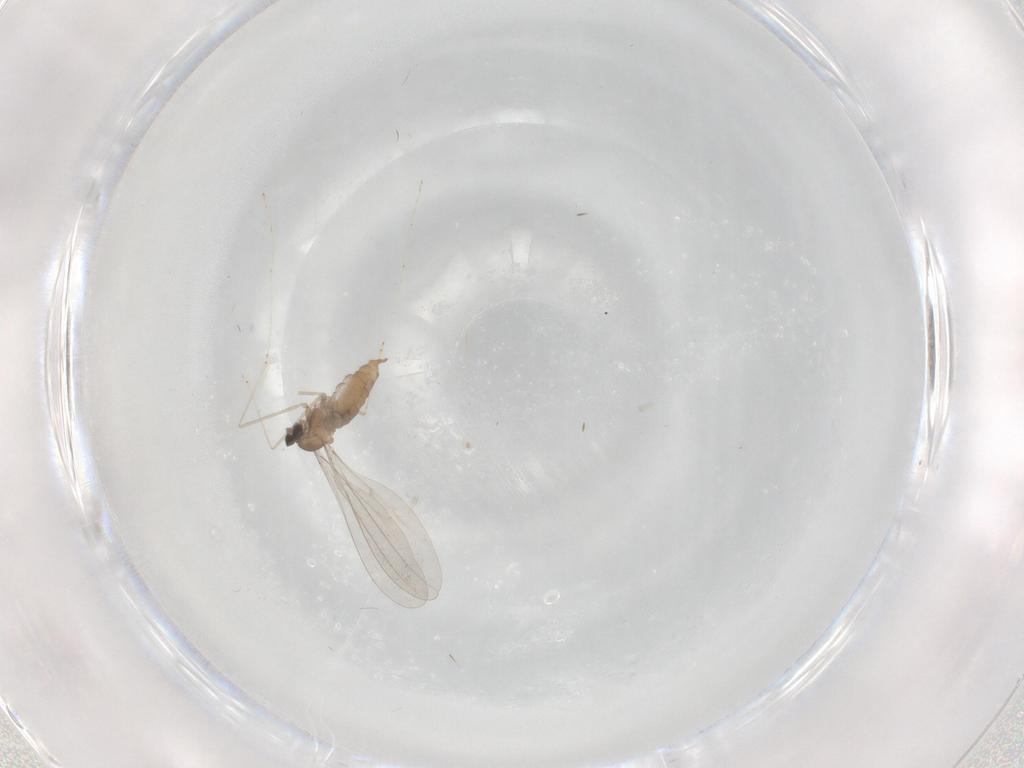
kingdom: Animalia
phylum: Arthropoda
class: Insecta
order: Diptera
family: Cecidomyiidae
